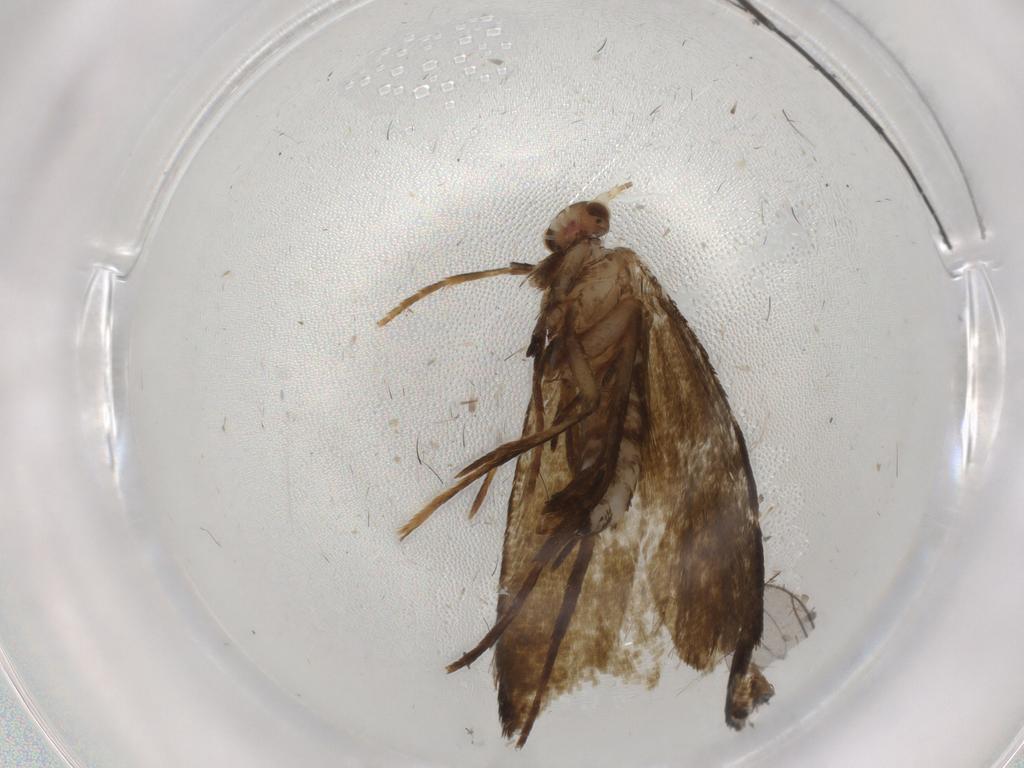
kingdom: Animalia
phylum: Arthropoda
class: Insecta
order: Lepidoptera
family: Tineidae
